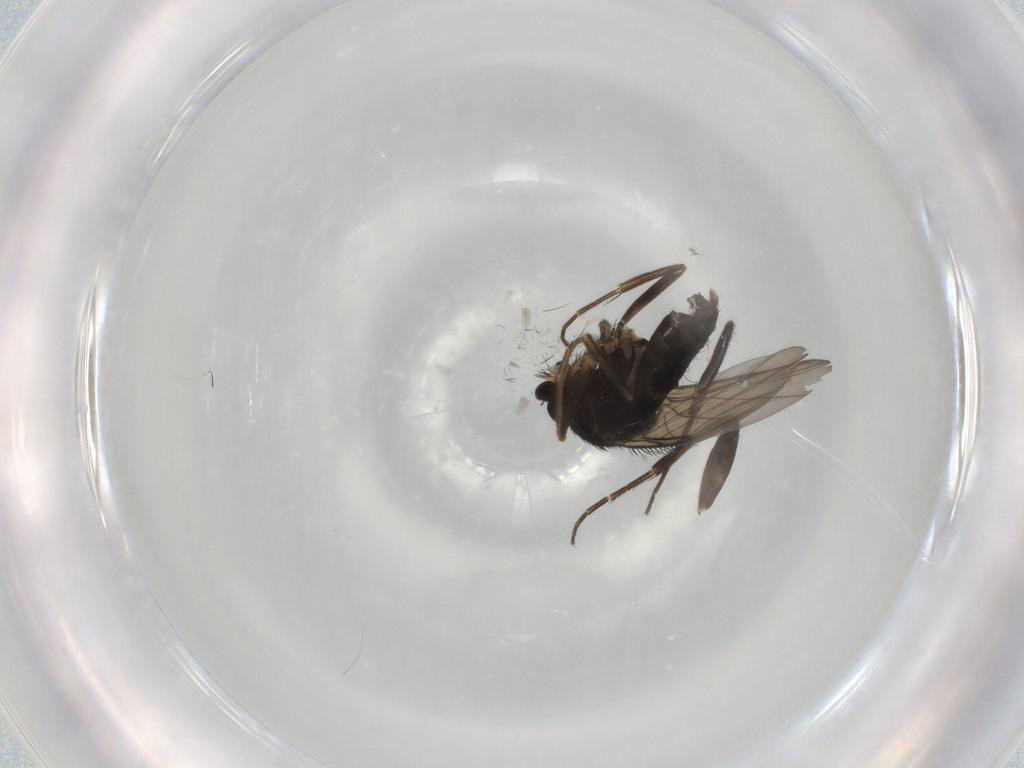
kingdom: Animalia
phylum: Arthropoda
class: Insecta
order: Diptera
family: Phoridae
